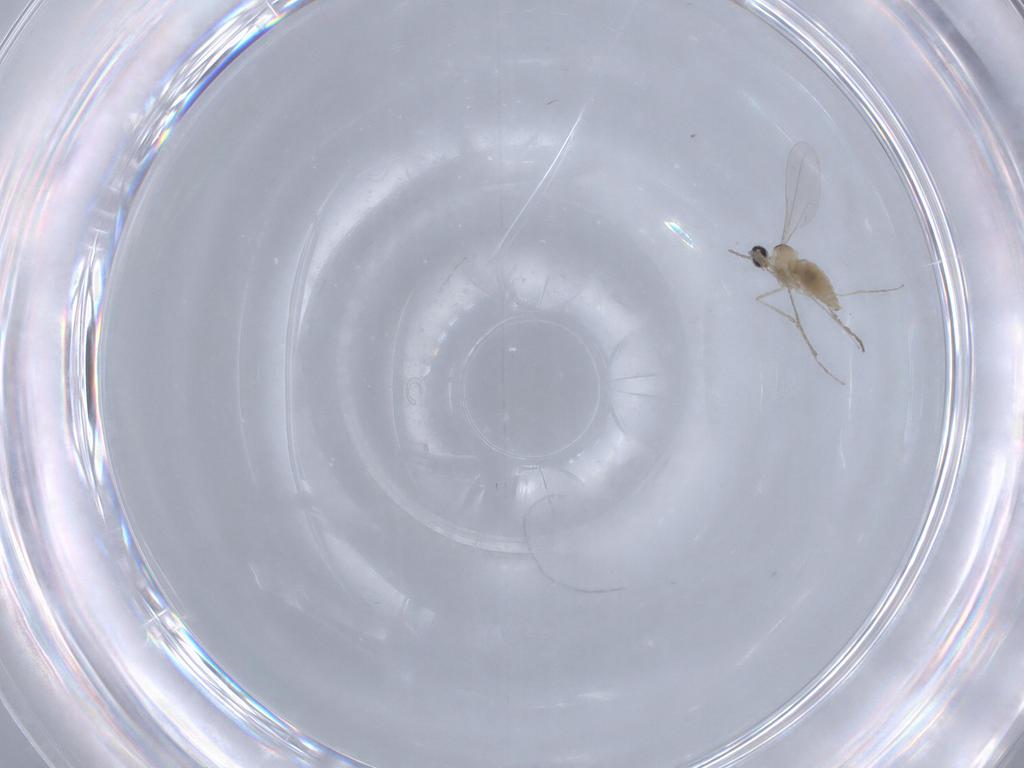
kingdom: Animalia
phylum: Arthropoda
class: Insecta
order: Diptera
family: Cecidomyiidae
